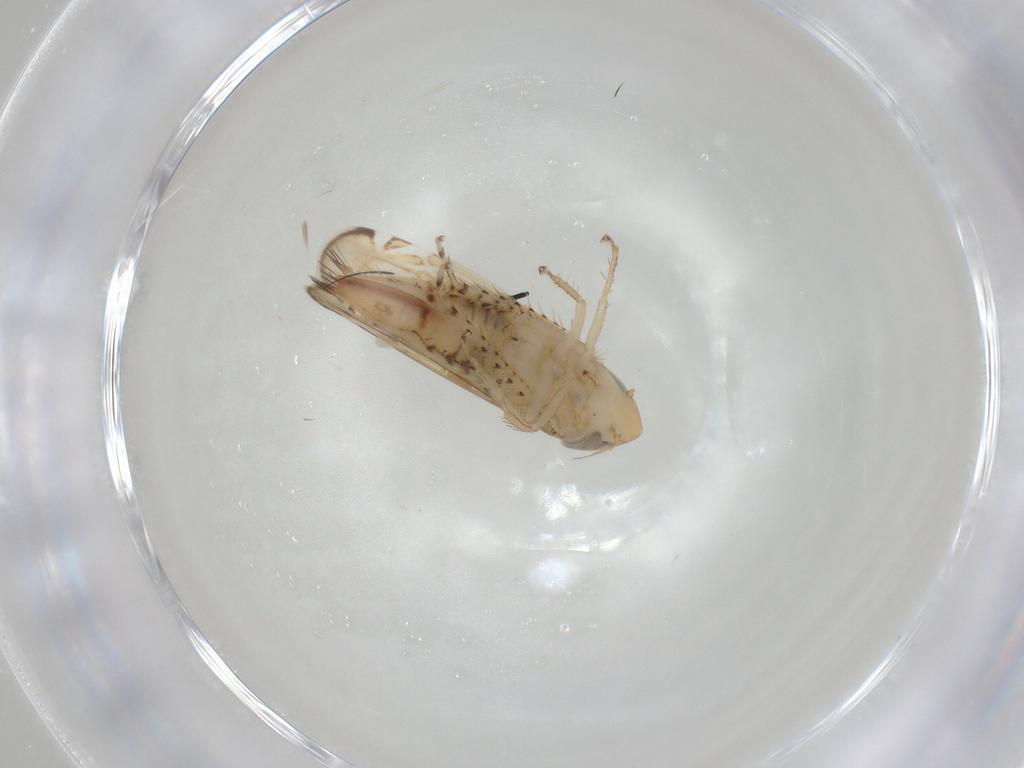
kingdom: Animalia
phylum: Arthropoda
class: Insecta
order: Hemiptera
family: Cicadellidae
